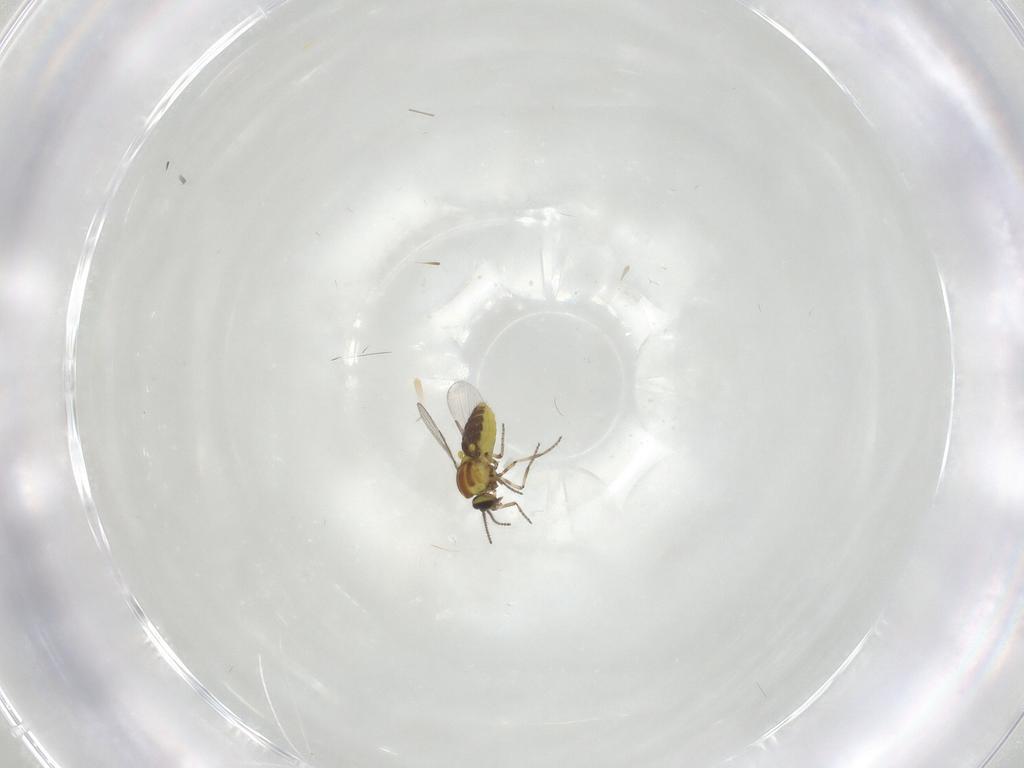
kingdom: Animalia
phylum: Arthropoda
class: Insecta
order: Diptera
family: Ceratopogonidae
